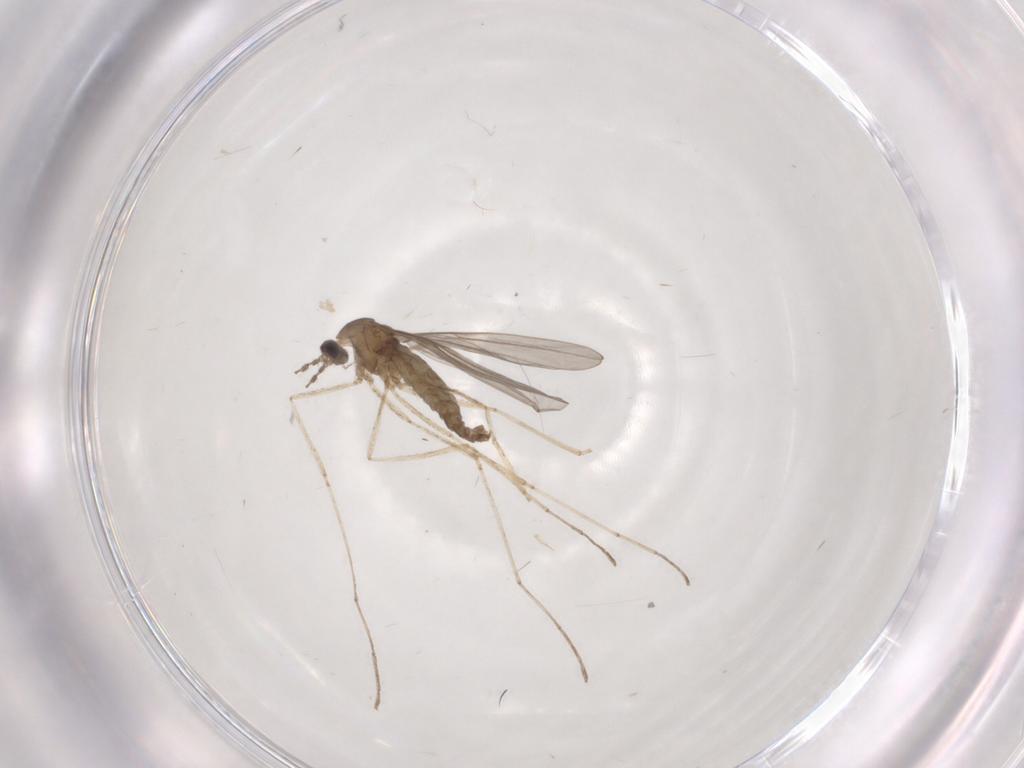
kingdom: Animalia
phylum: Arthropoda
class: Insecta
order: Diptera
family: Cecidomyiidae
